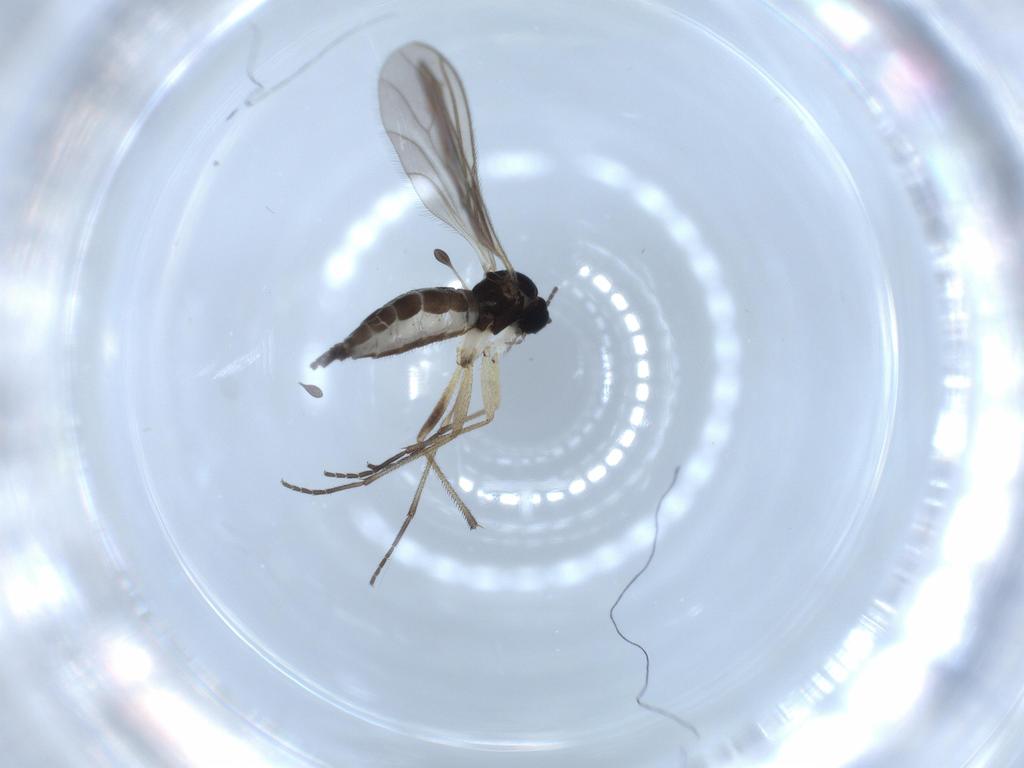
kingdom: Animalia
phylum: Arthropoda
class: Insecta
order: Diptera
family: Sciaridae
